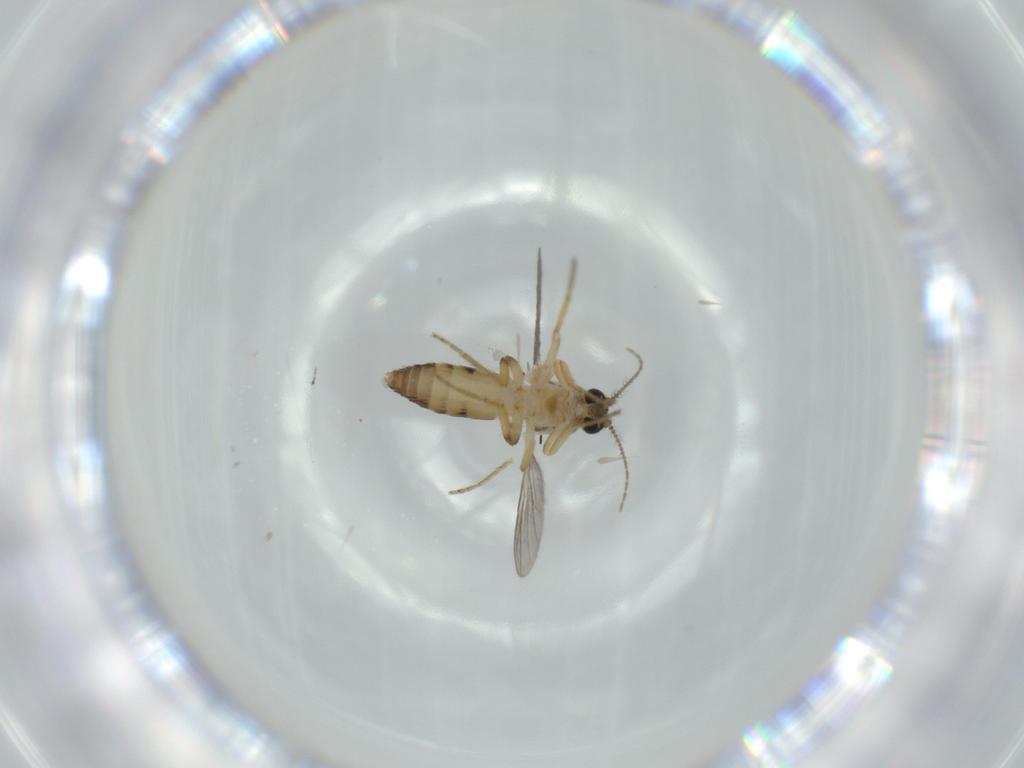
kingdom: Animalia
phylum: Arthropoda
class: Insecta
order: Diptera
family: Ceratopogonidae
